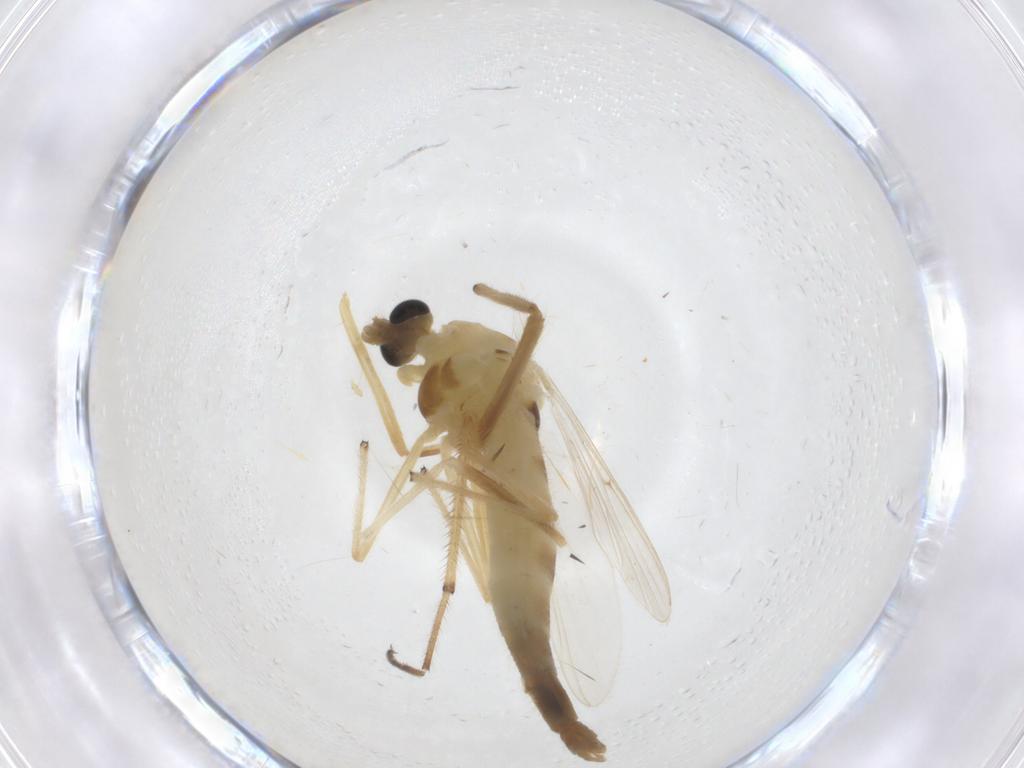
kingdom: Animalia
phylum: Arthropoda
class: Insecta
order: Diptera
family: Chironomidae
